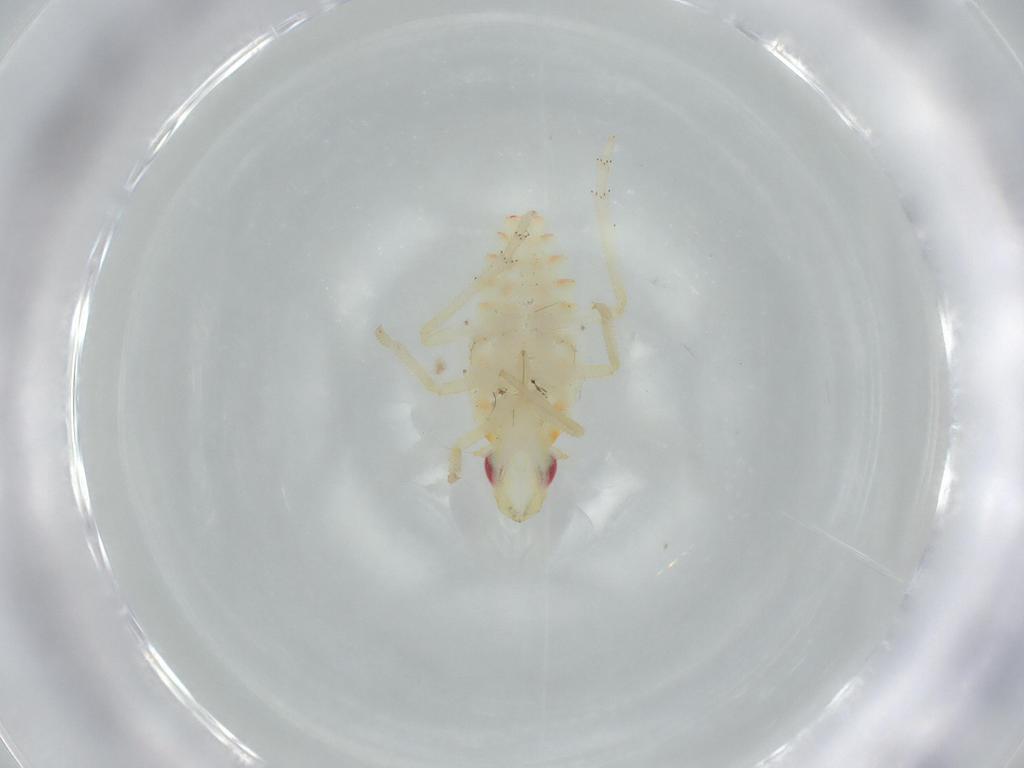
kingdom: Animalia
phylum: Arthropoda
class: Insecta
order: Hemiptera
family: Tropiduchidae
